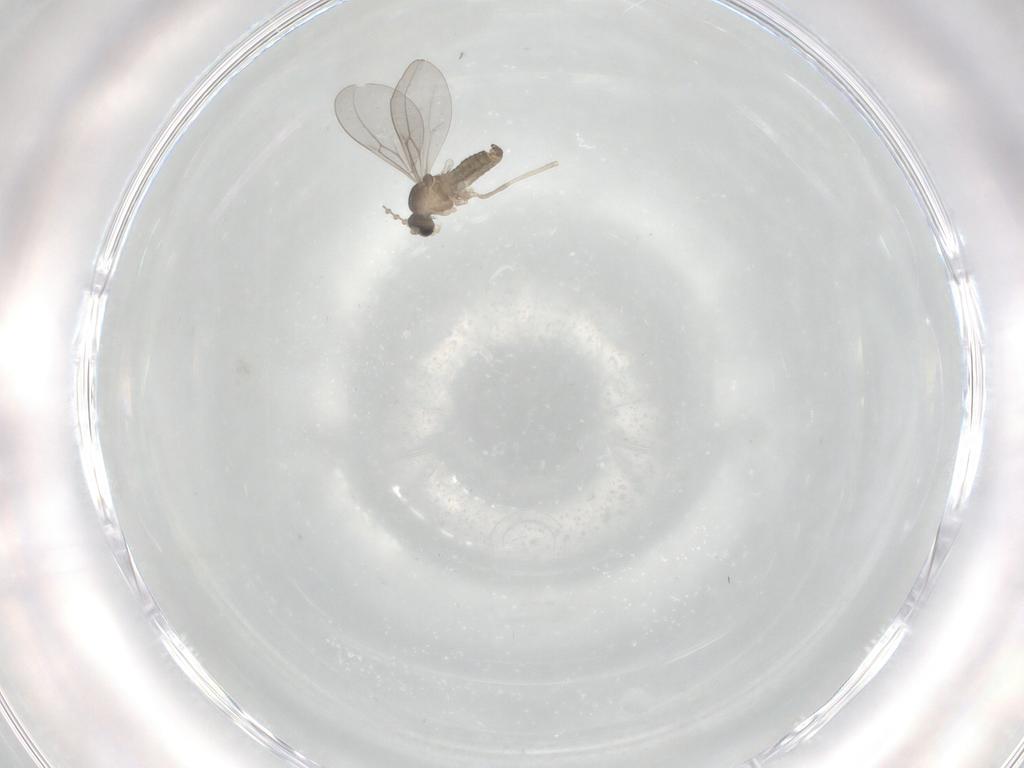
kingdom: Animalia
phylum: Arthropoda
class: Insecta
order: Diptera
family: Cecidomyiidae
